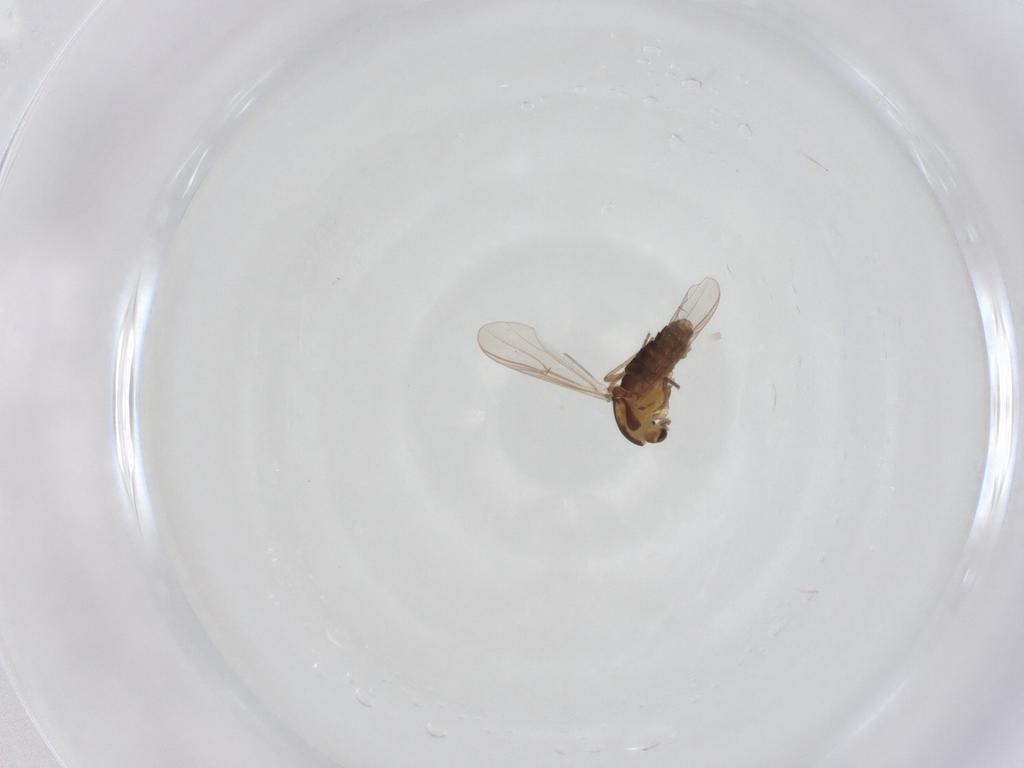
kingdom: Animalia
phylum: Arthropoda
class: Insecta
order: Diptera
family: Chironomidae
